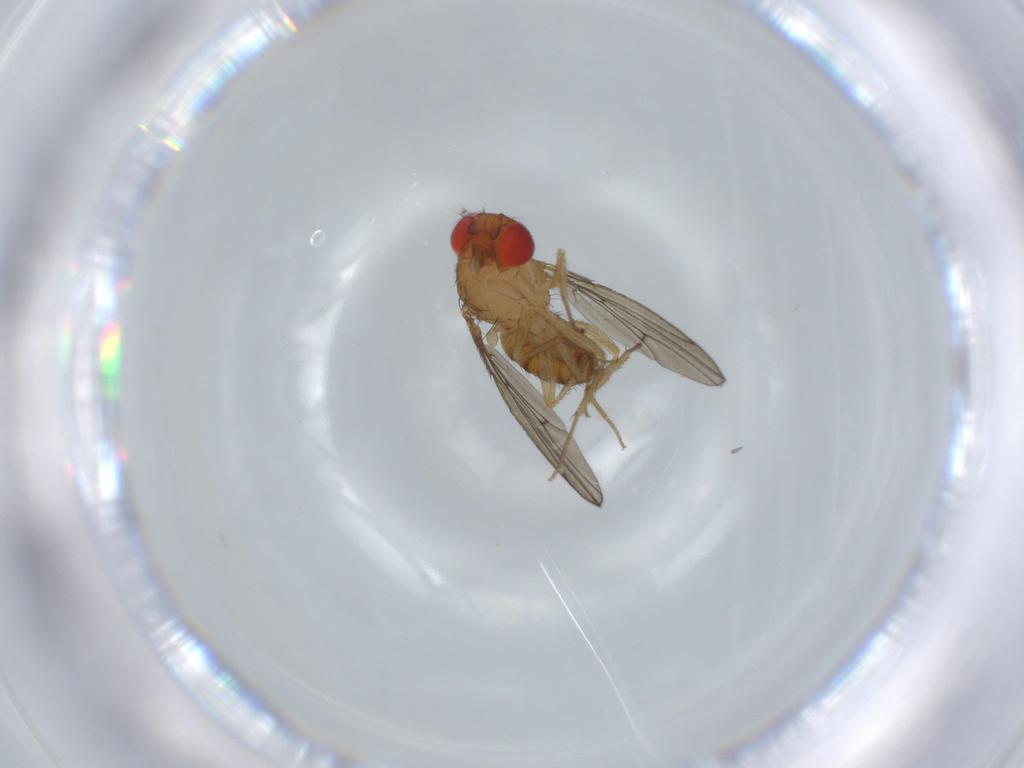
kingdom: Animalia
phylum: Arthropoda
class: Insecta
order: Diptera
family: Drosophilidae
